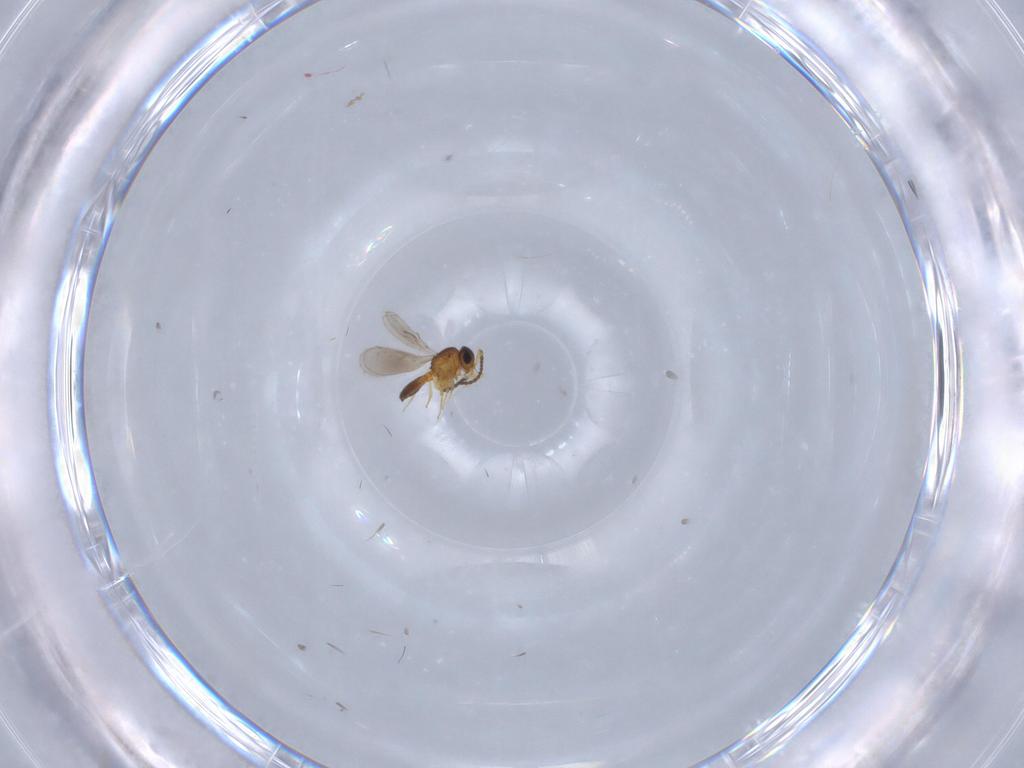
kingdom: Animalia
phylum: Arthropoda
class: Insecta
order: Hymenoptera
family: Scelionidae
